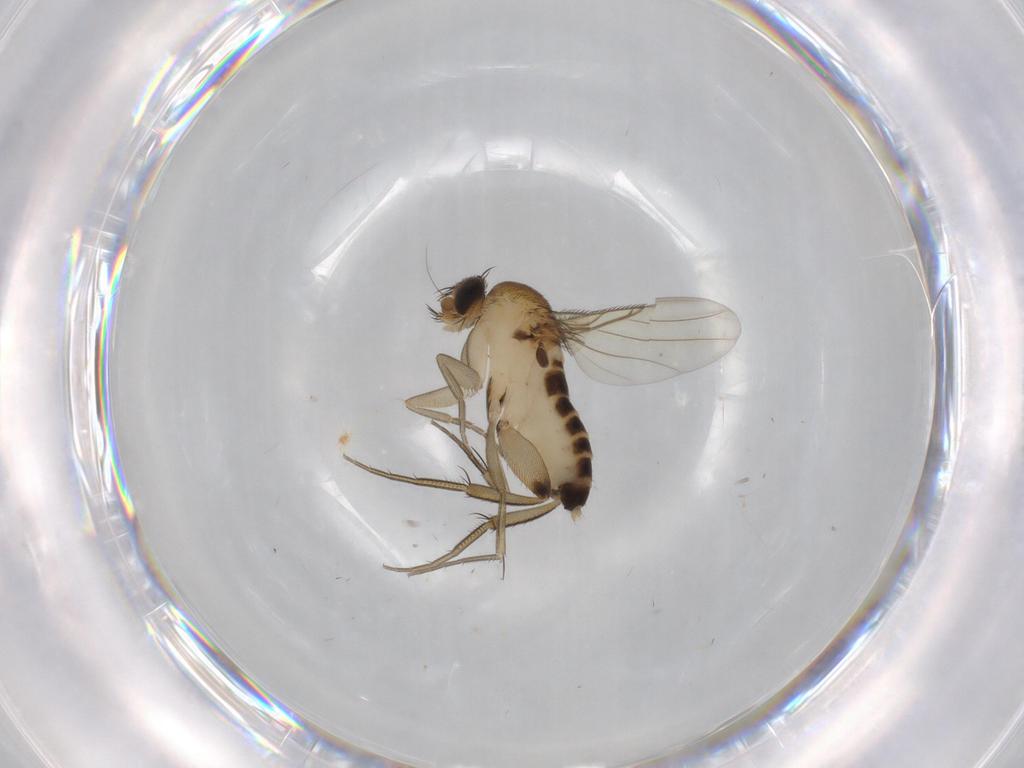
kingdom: Animalia
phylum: Arthropoda
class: Insecta
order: Diptera
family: Phoridae
